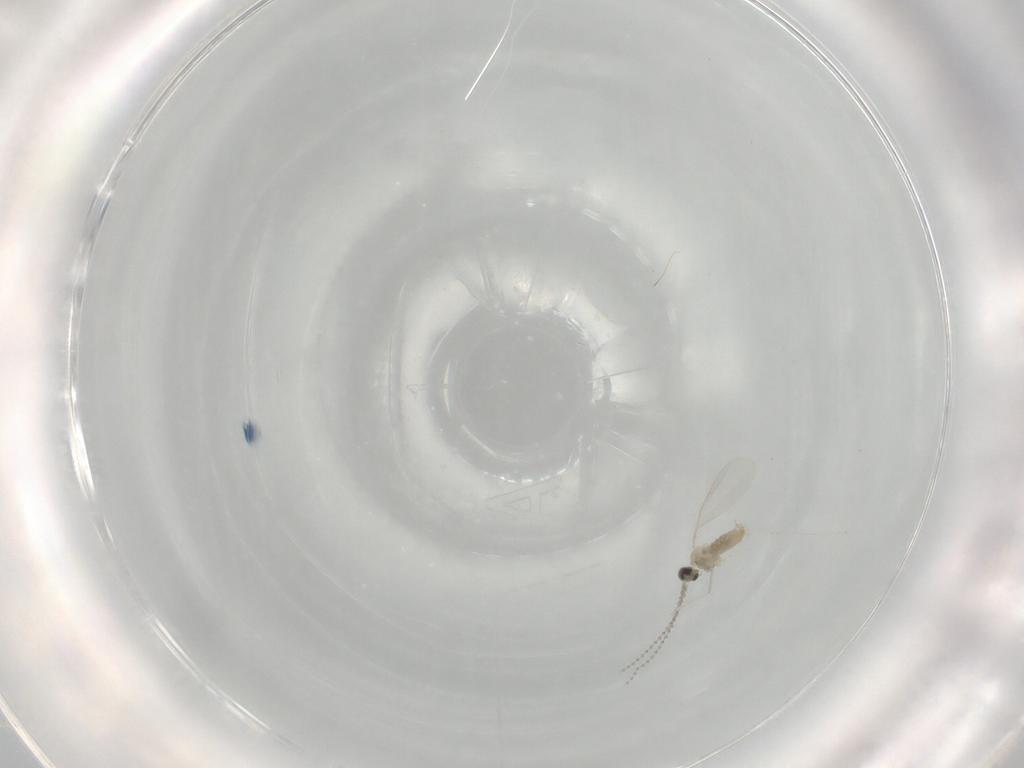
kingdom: Animalia
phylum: Arthropoda
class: Insecta
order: Diptera
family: Cecidomyiidae
